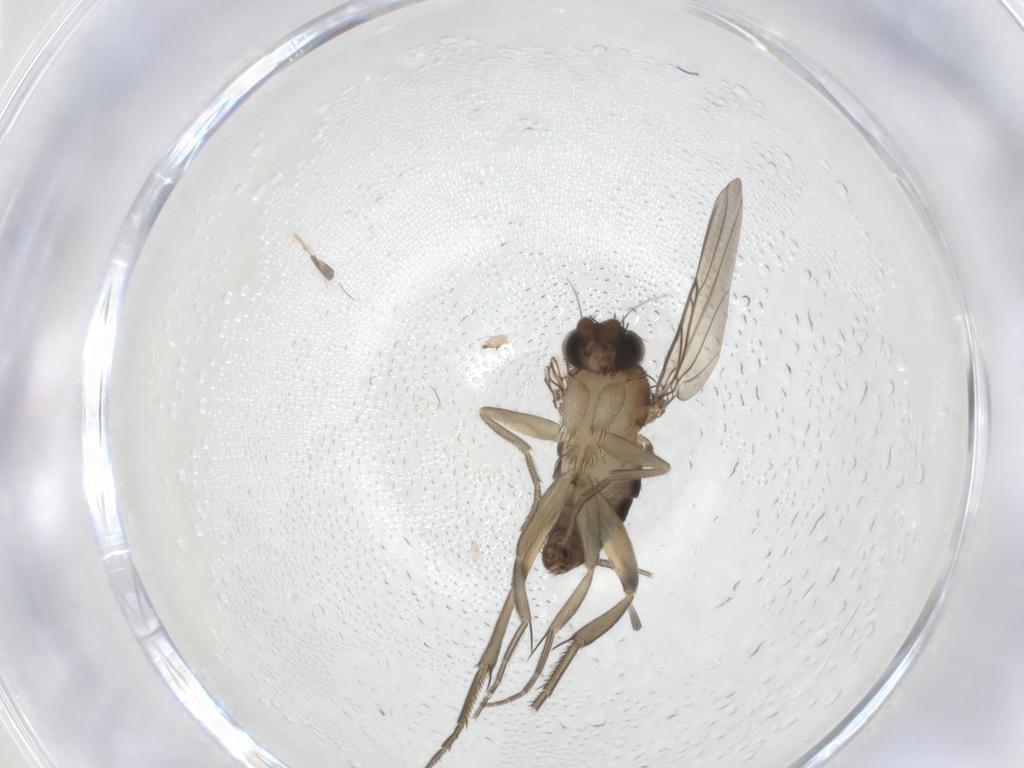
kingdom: Animalia
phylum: Arthropoda
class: Insecta
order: Diptera
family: Phoridae
